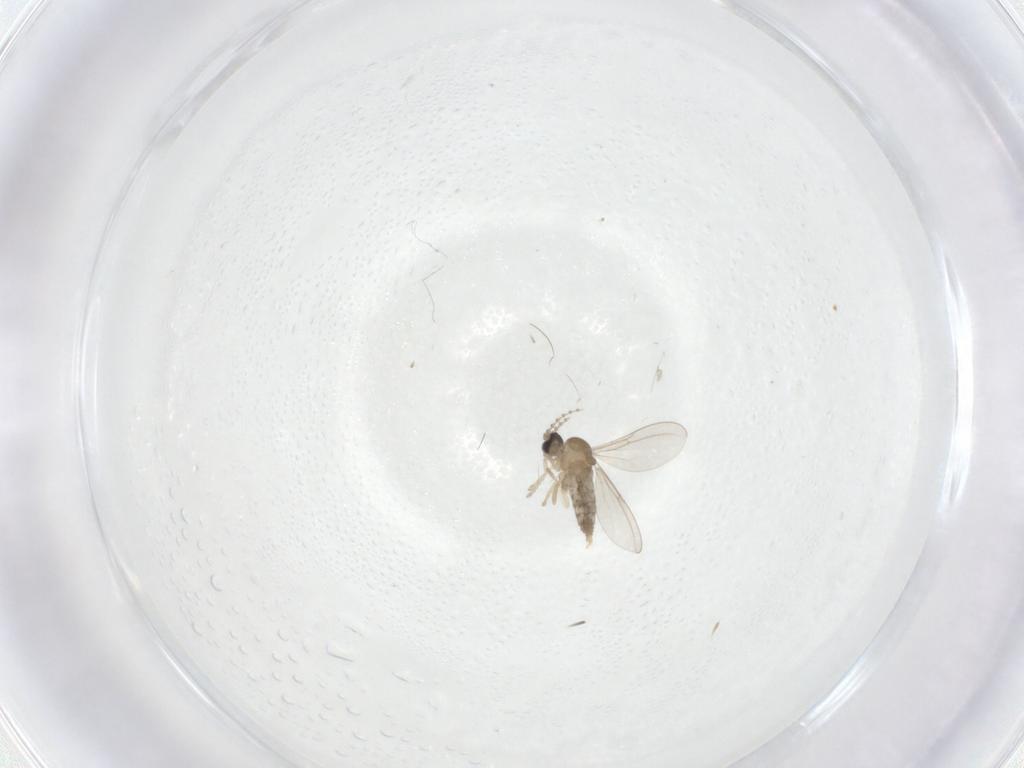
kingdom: Animalia
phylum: Arthropoda
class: Insecta
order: Diptera
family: Cecidomyiidae
